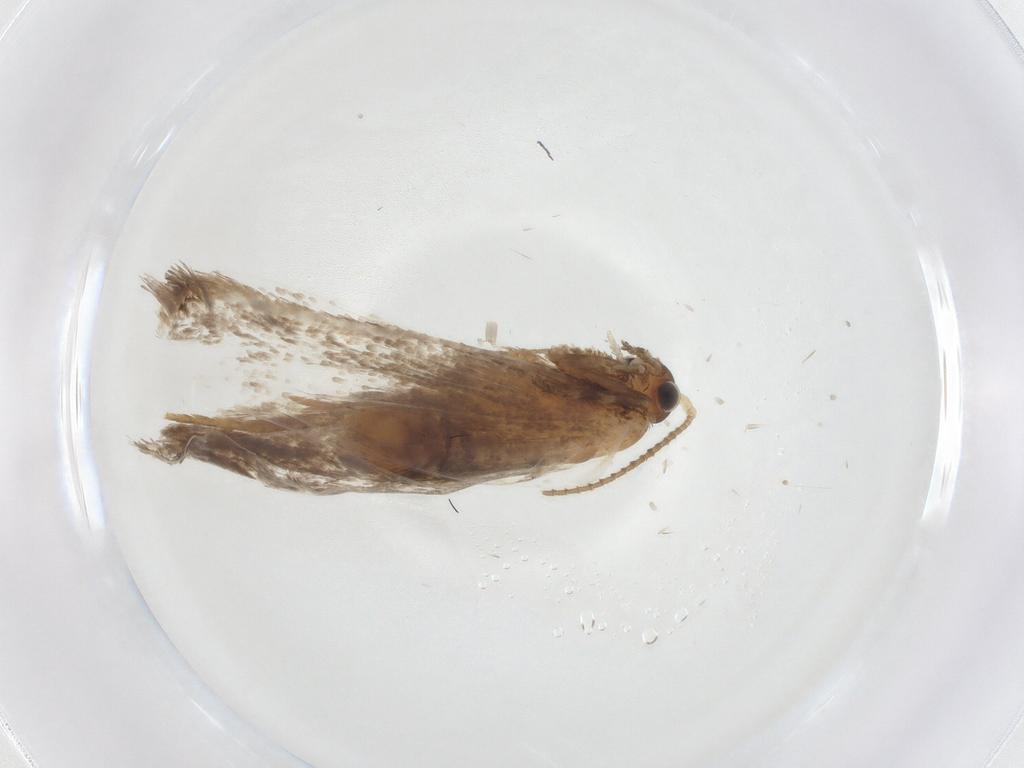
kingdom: Animalia
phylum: Arthropoda
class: Insecta
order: Lepidoptera
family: Dryadaulidae
